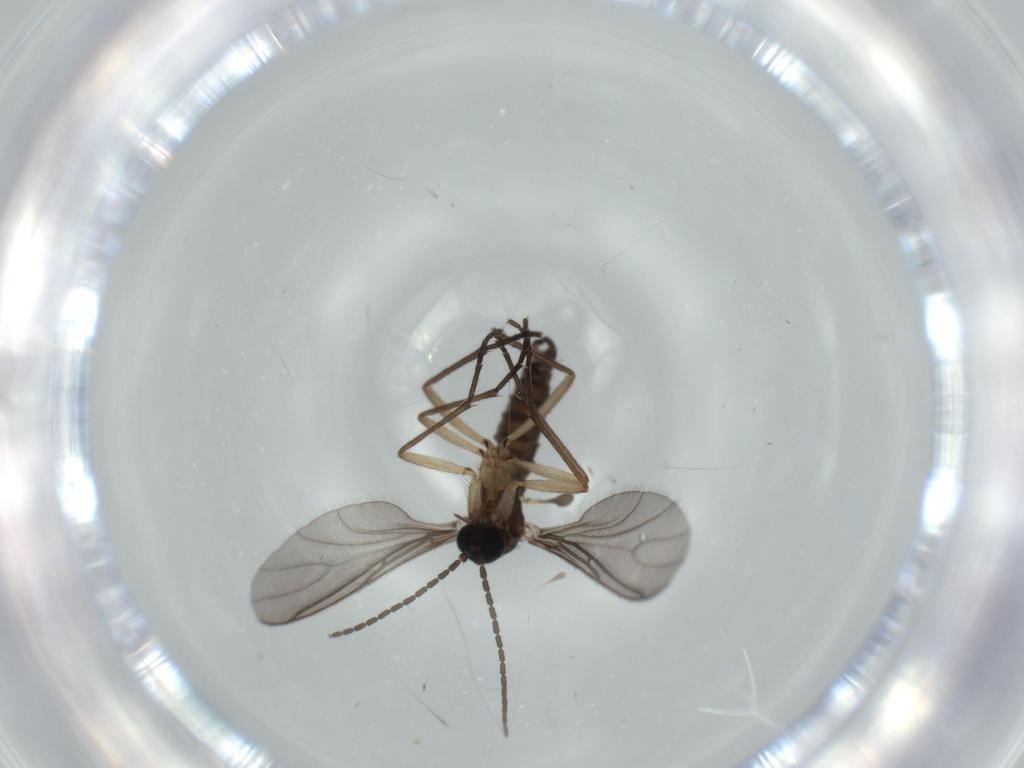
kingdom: Animalia
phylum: Arthropoda
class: Insecta
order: Diptera
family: Sciaridae
